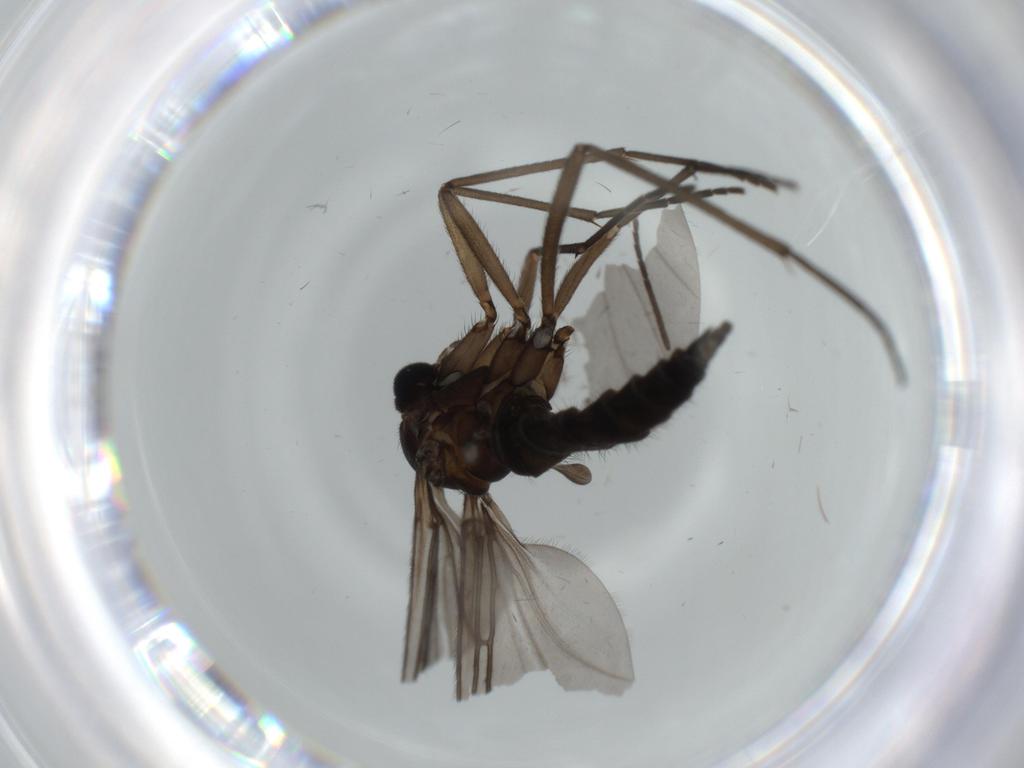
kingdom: Animalia
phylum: Arthropoda
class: Insecta
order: Diptera
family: Sciaridae
